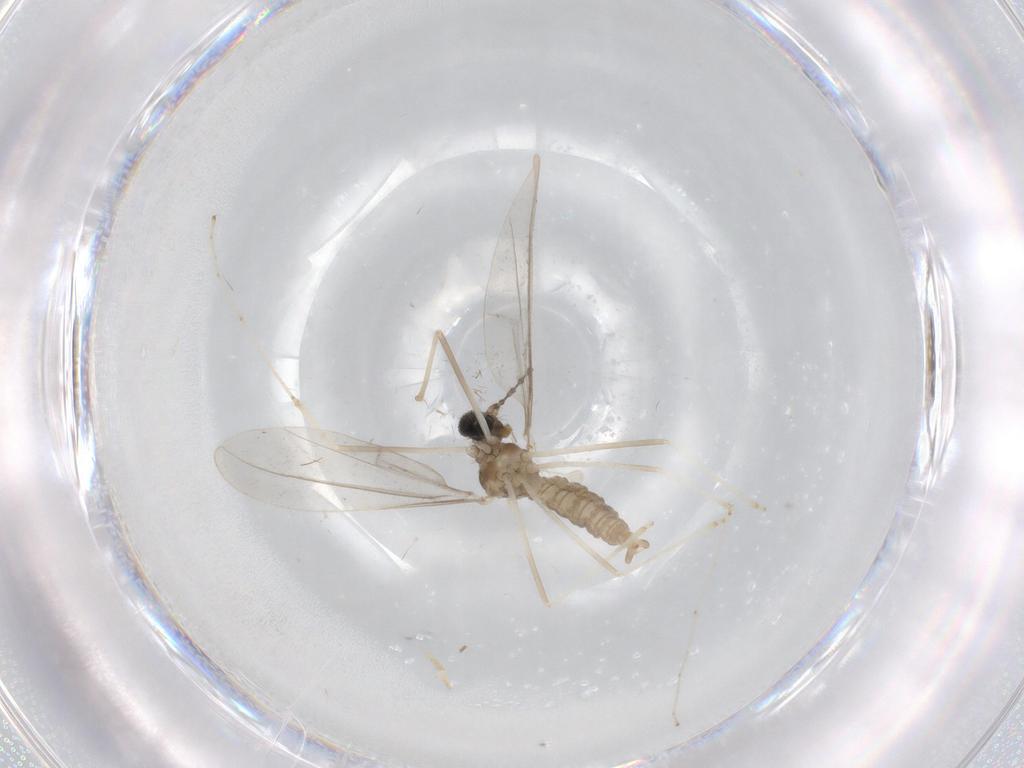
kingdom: Animalia
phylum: Arthropoda
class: Insecta
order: Diptera
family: Cecidomyiidae
